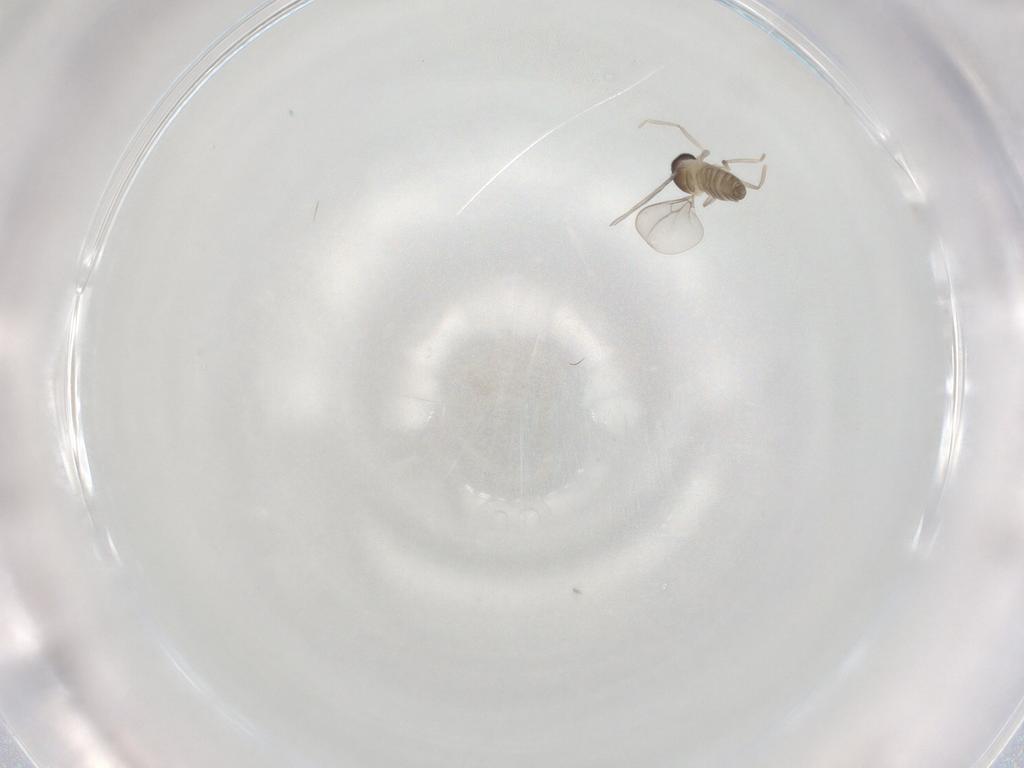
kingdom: Animalia
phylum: Arthropoda
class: Insecta
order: Diptera
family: Cecidomyiidae
